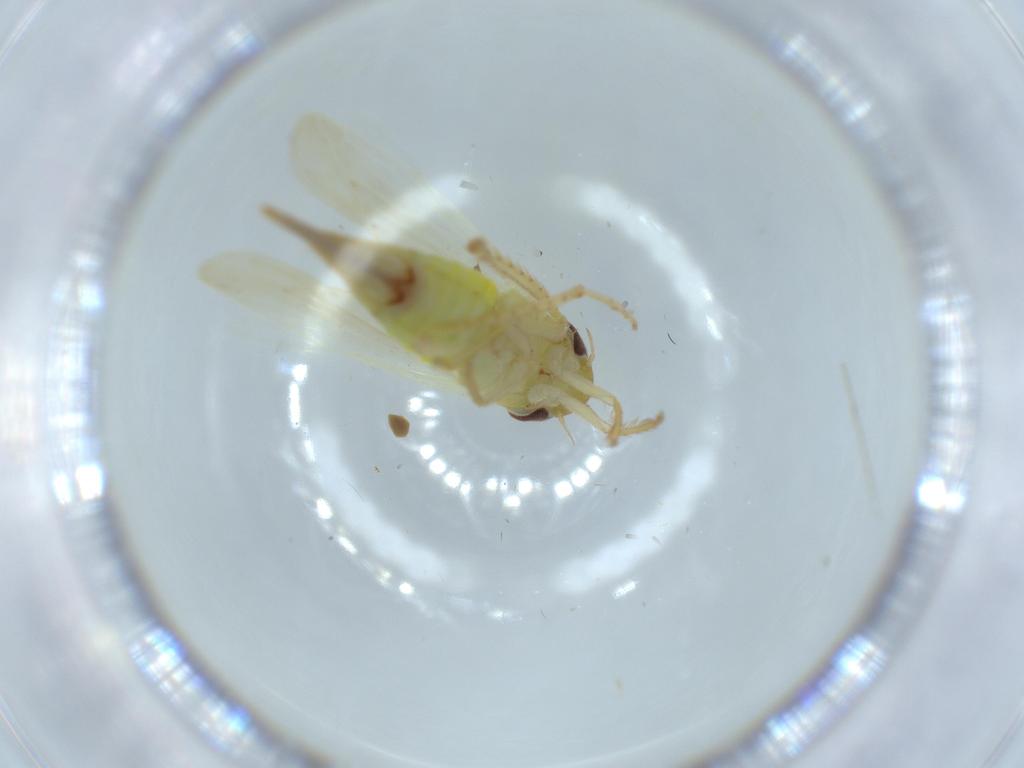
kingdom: Animalia
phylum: Arthropoda
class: Insecta
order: Hemiptera
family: Cicadellidae
